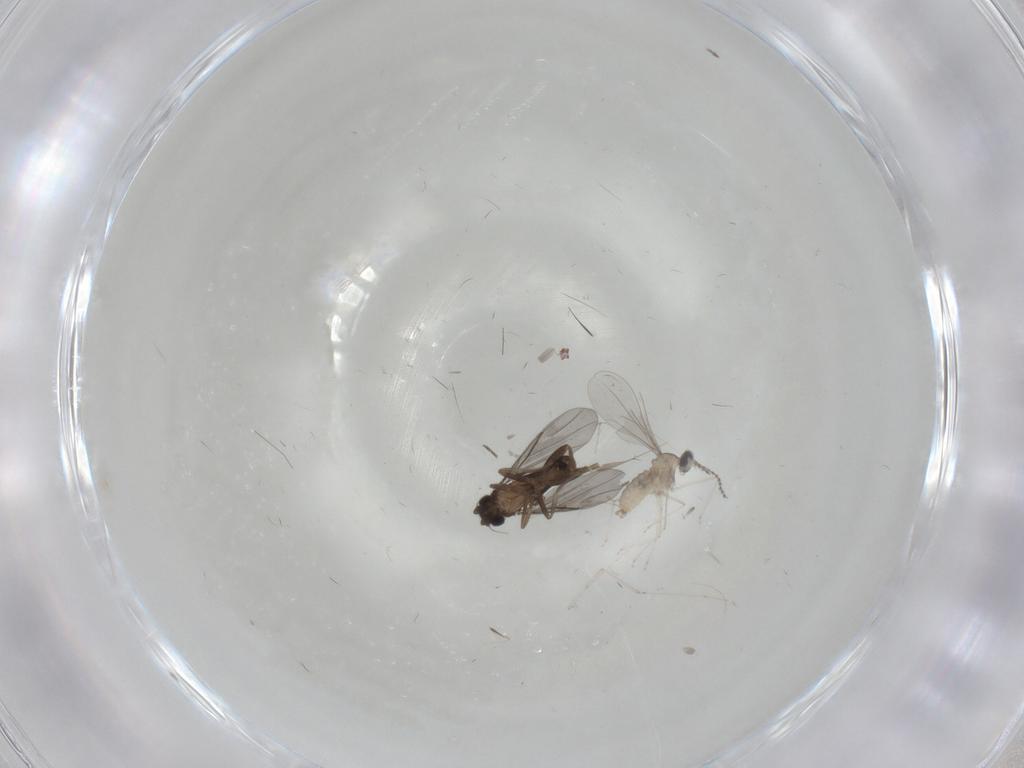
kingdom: Animalia
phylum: Arthropoda
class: Insecta
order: Diptera
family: Chironomidae
